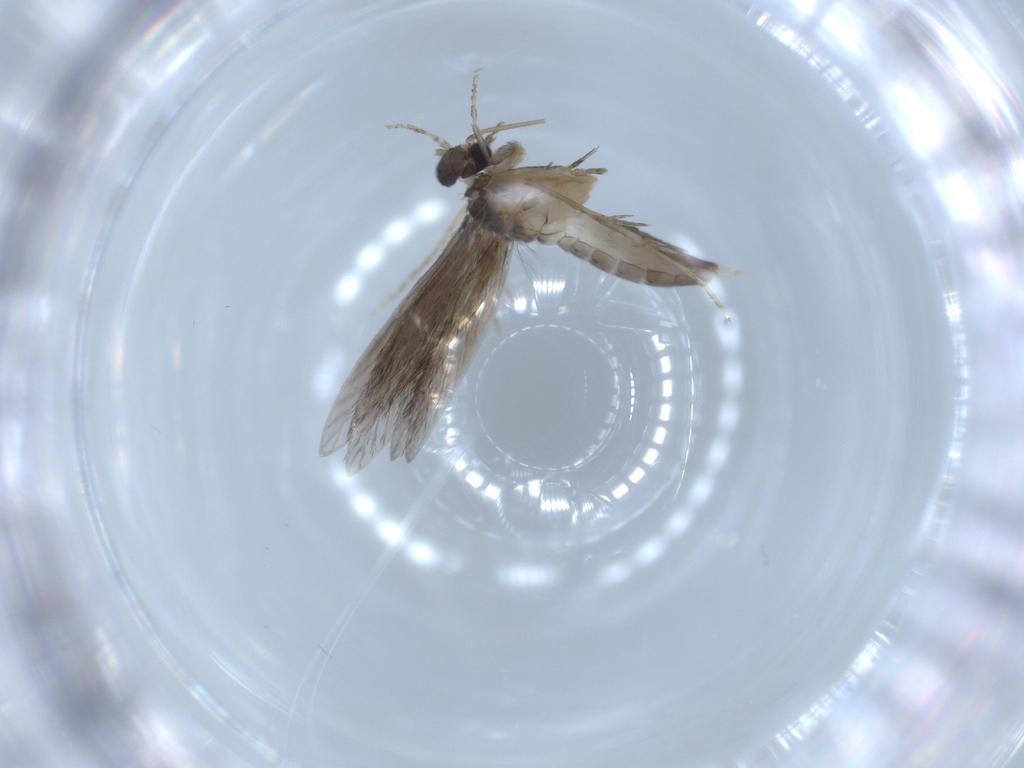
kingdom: Animalia
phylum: Arthropoda
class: Insecta
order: Trichoptera
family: Hydroptilidae
